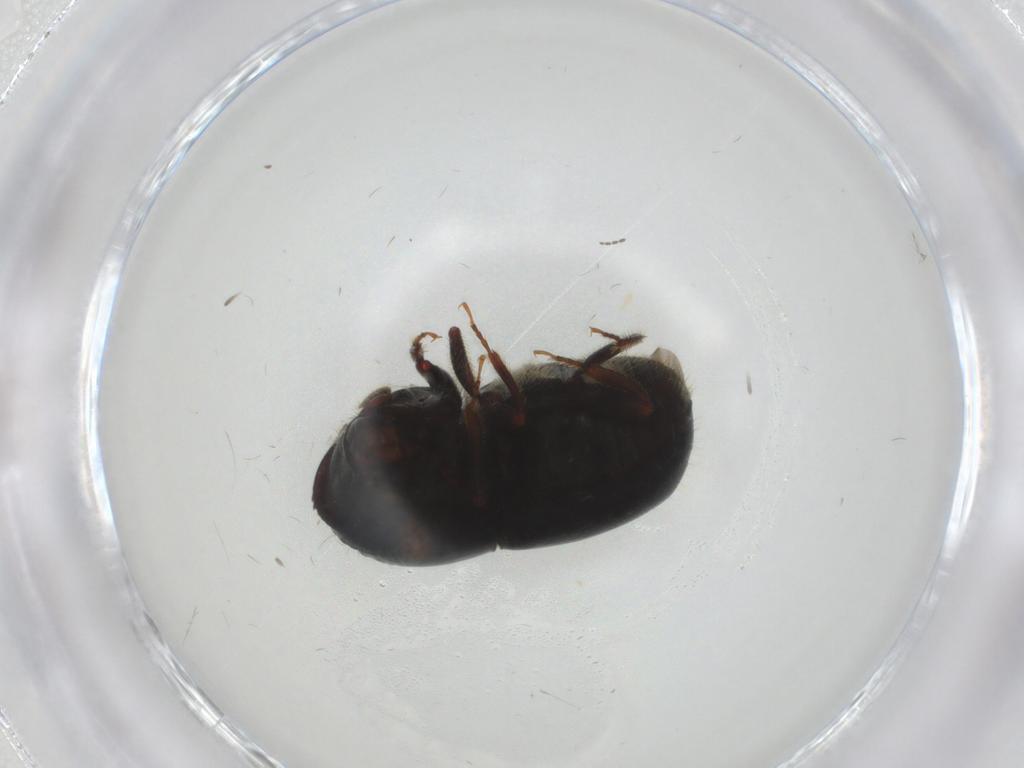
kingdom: Animalia
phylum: Arthropoda
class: Insecta
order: Coleoptera
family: Curculionidae
